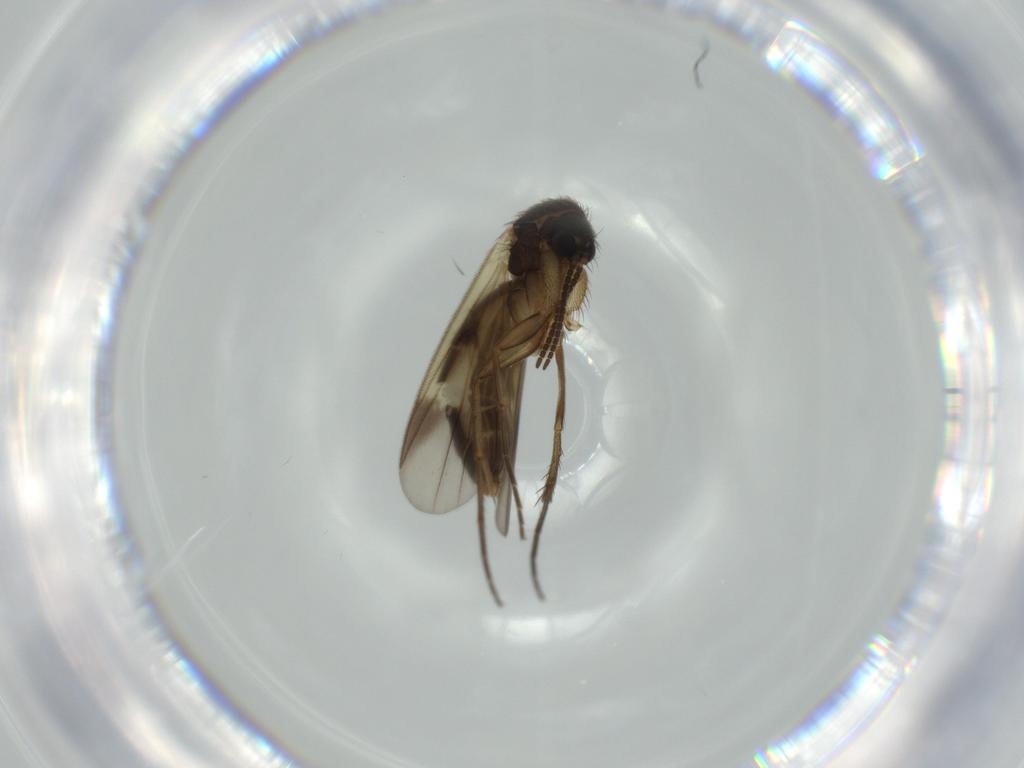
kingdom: Animalia
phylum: Arthropoda
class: Insecta
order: Diptera
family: Mycetophilidae
